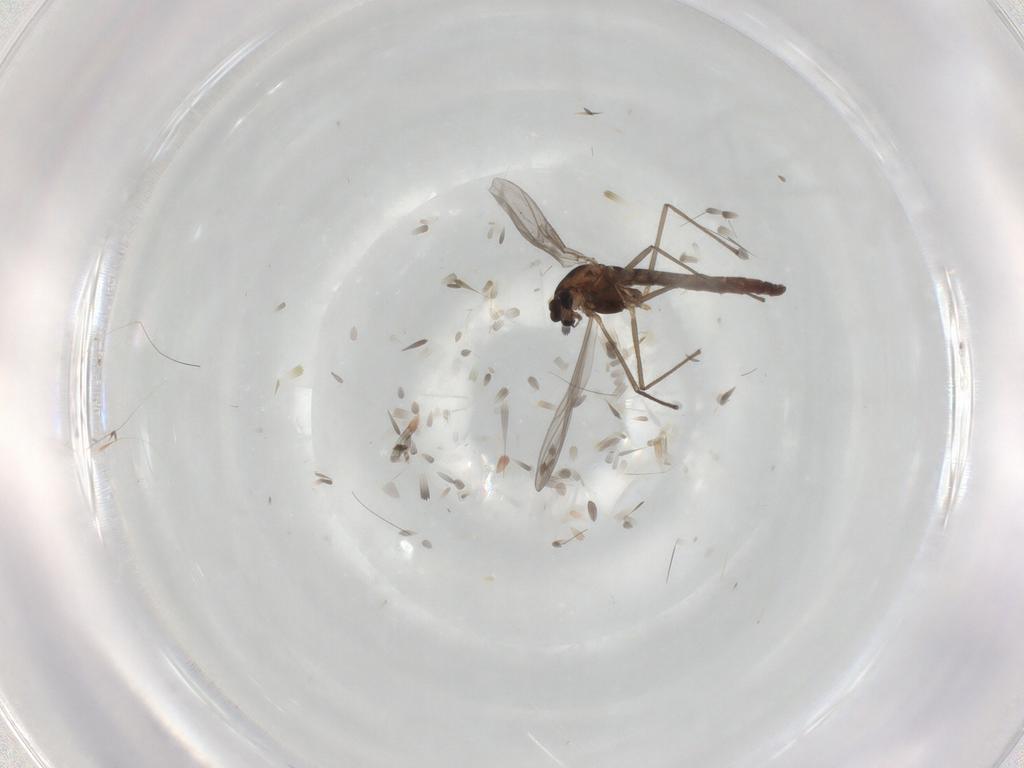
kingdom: Animalia
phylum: Arthropoda
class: Insecta
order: Diptera
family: Chironomidae
